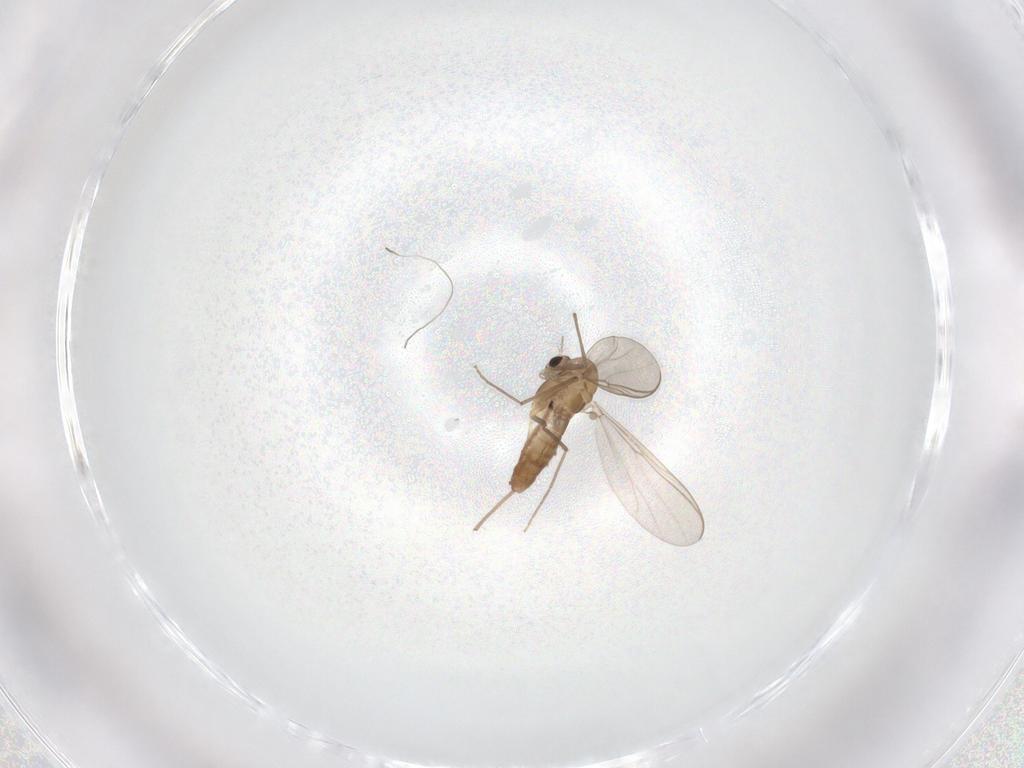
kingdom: Animalia
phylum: Arthropoda
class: Insecta
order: Diptera
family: Chironomidae
